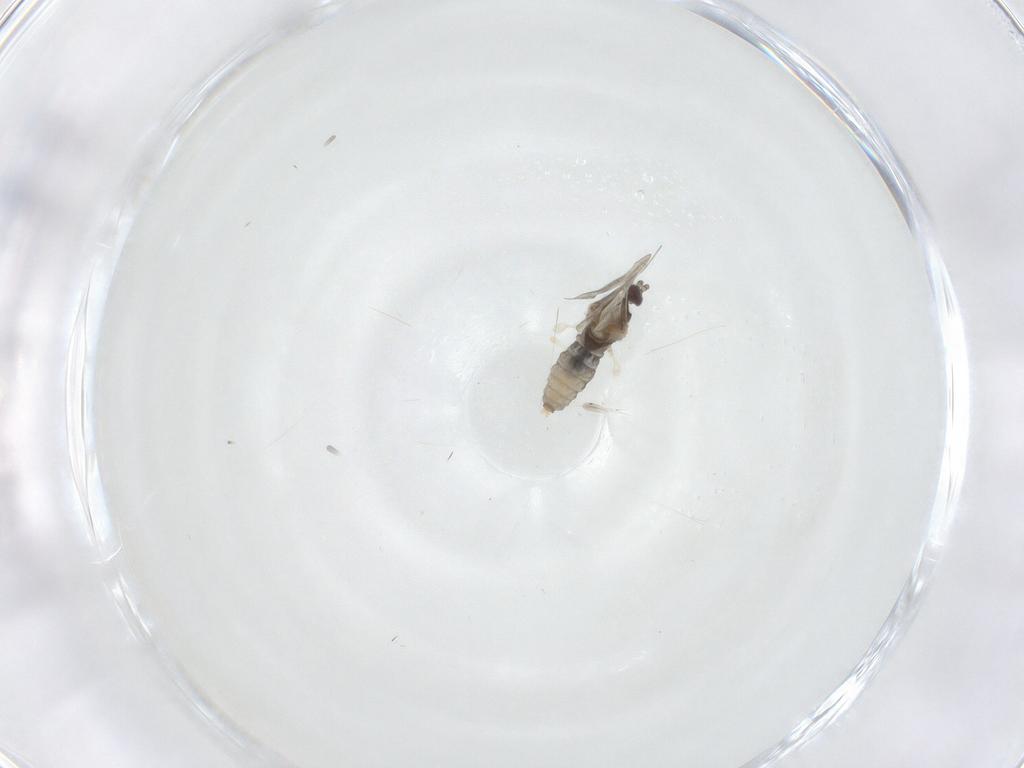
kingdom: Animalia
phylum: Arthropoda
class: Insecta
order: Diptera
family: Cecidomyiidae
